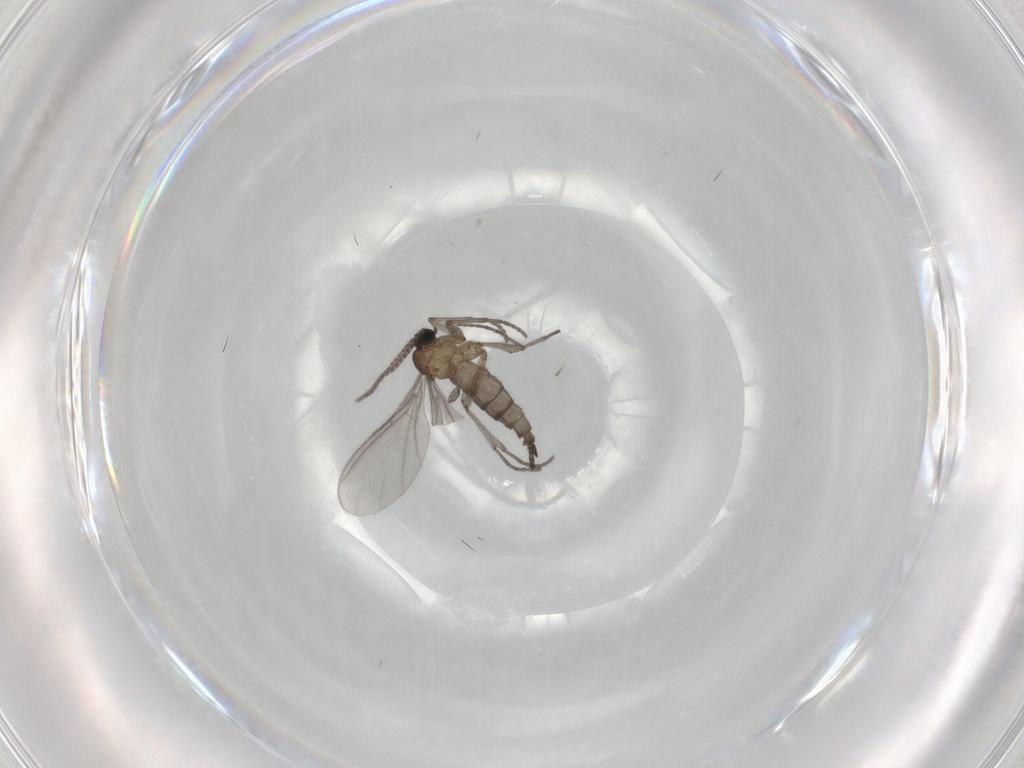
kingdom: Animalia
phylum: Arthropoda
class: Insecta
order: Diptera
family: Sciaridae
